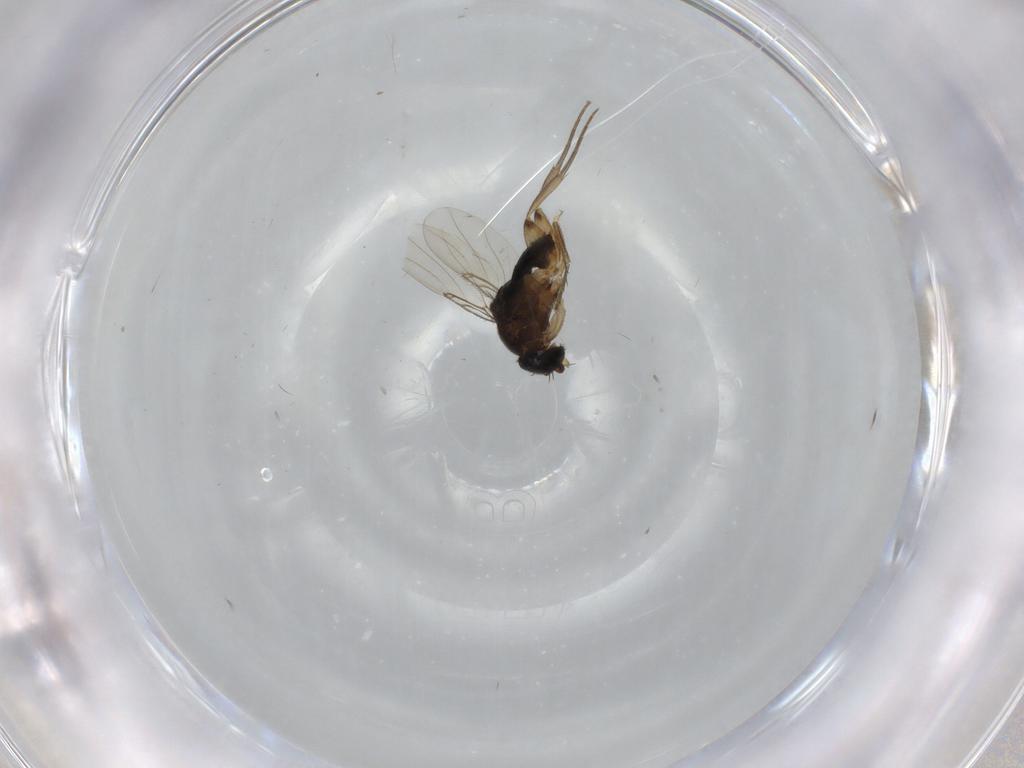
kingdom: Animalia
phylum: Arthropoda
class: Insecta
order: Diptera
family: Phoridae
